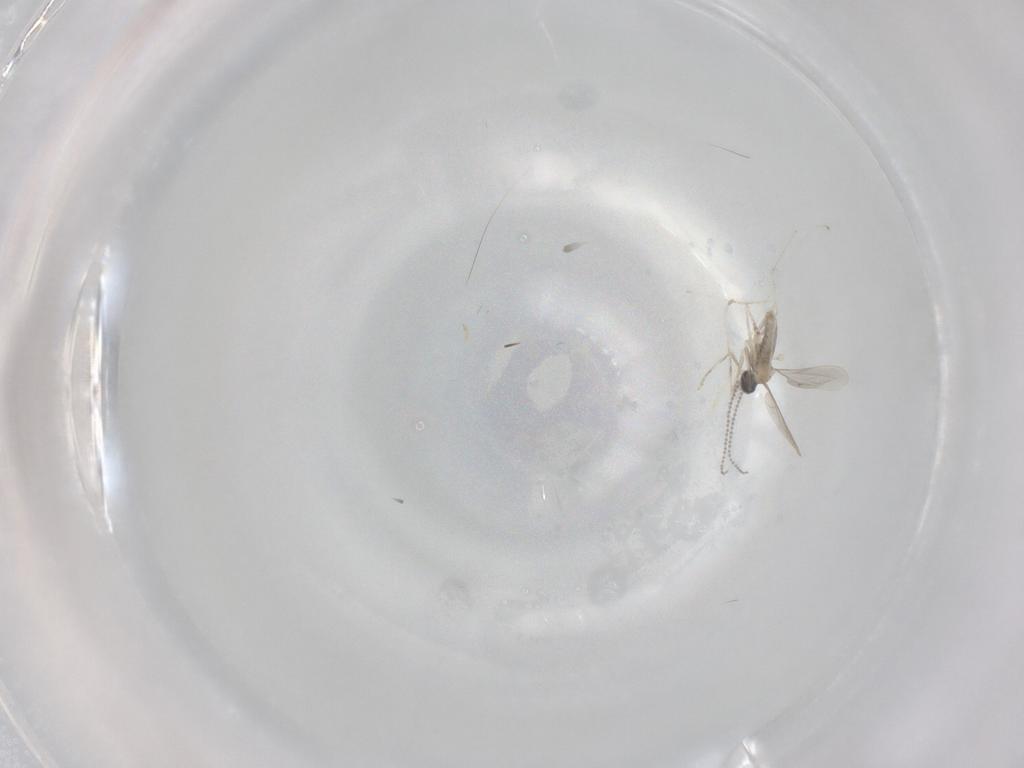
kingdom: Animalia
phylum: Arthropoda
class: Insecta
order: Diptera
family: Cecidomyiidae
